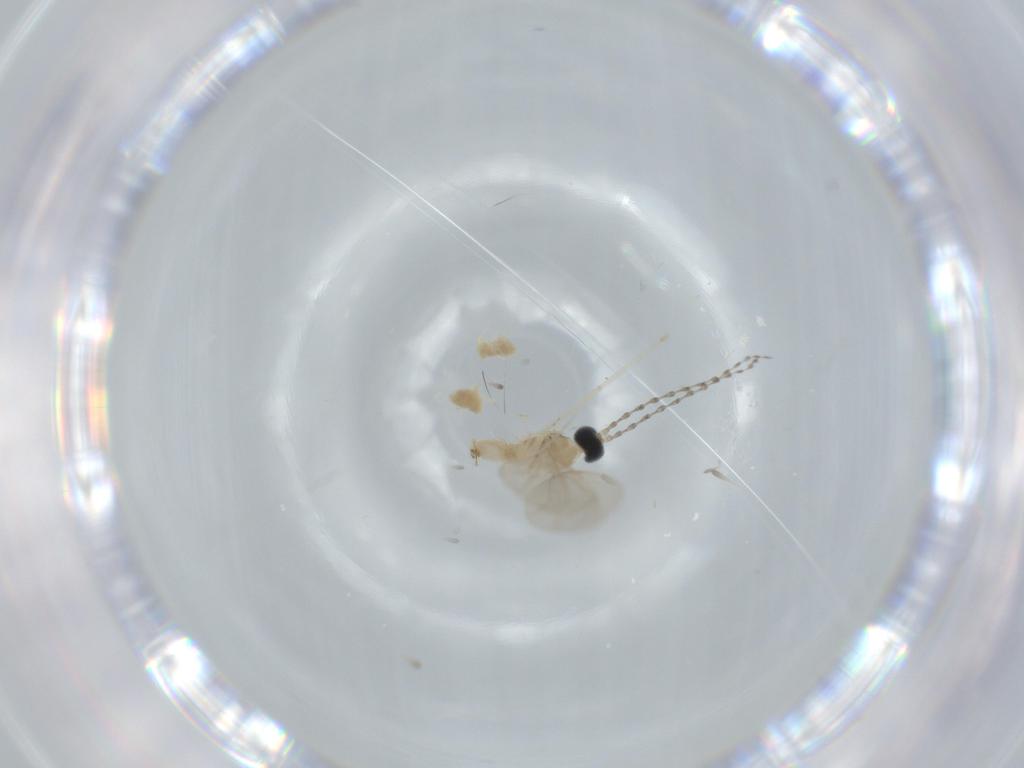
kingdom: Animalia
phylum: Arthropoda
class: Insecta
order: Diptera
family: Cecidomyiidae
